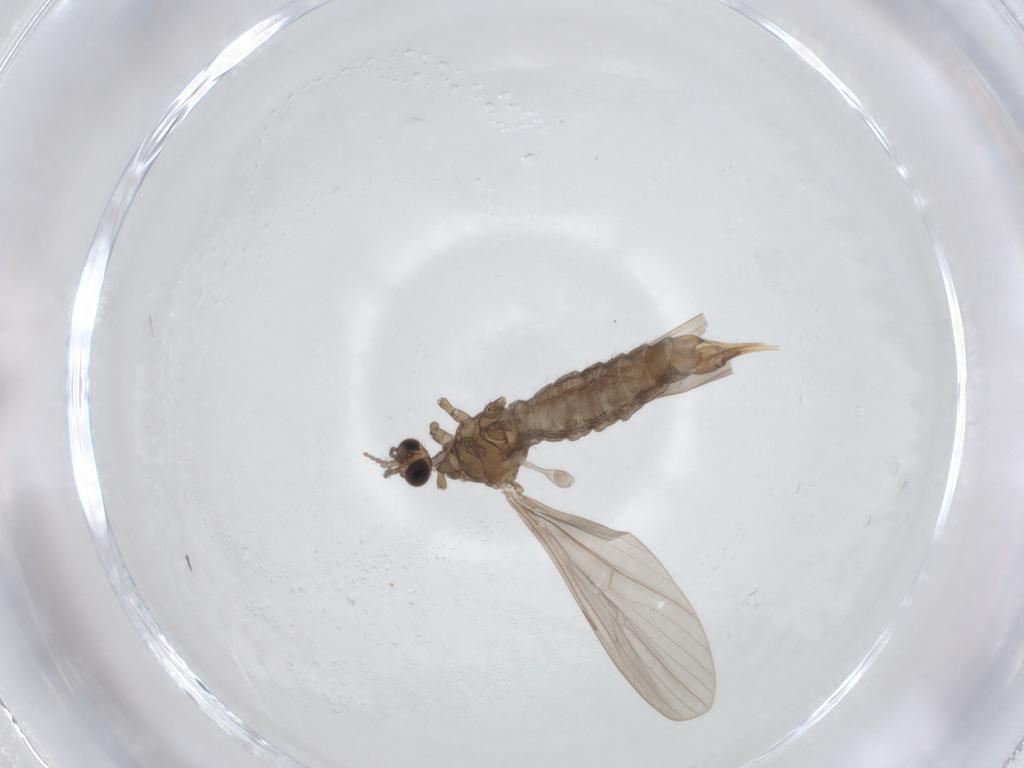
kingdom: Animalia
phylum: Arthropoda
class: Insecta
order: Diptera
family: Limoniidae
